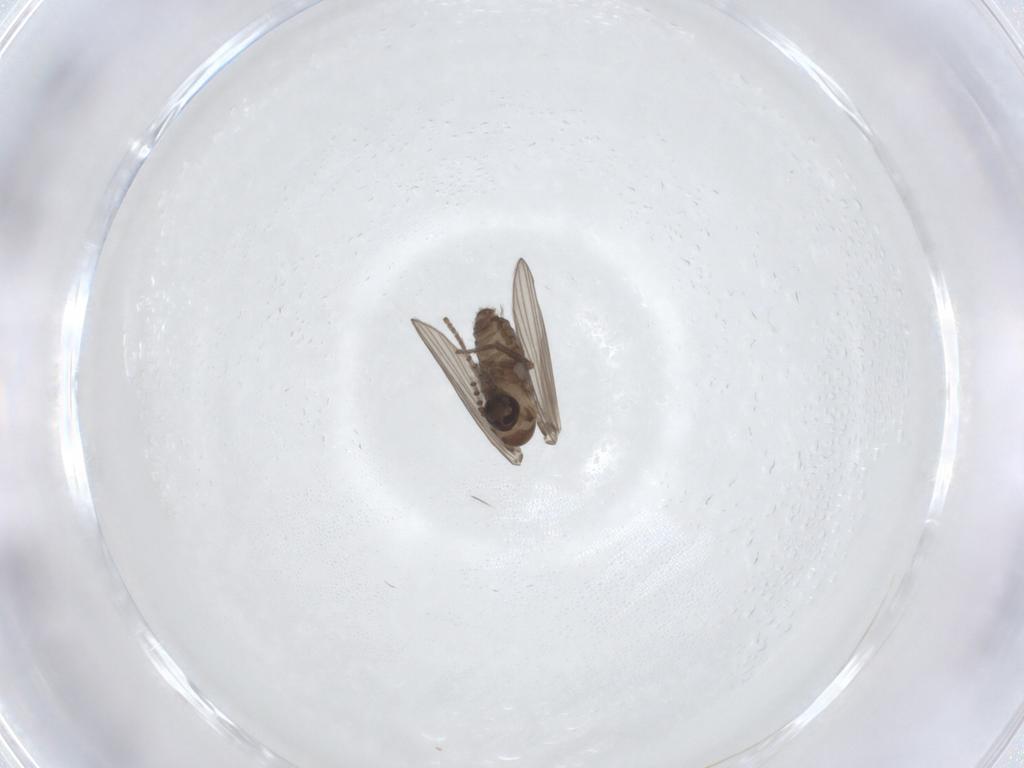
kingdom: Animalia
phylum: Arthropoda
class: Insecta
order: Diptera
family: Psychodidae
